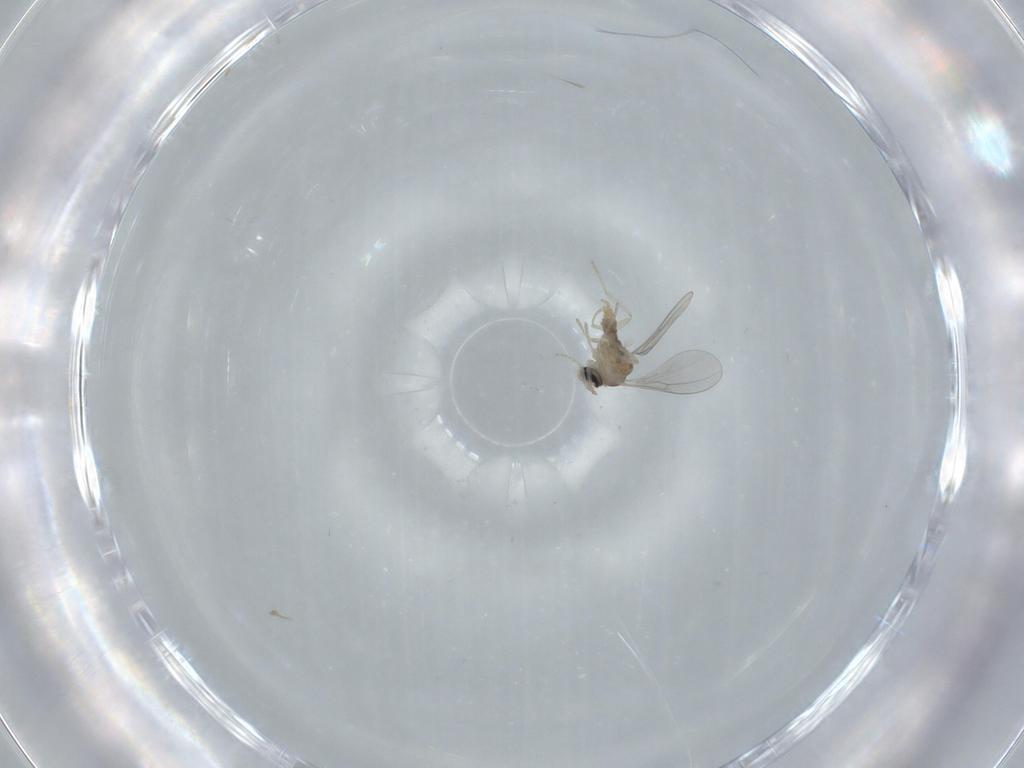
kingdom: Animalia
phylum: Arthropoda
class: Insecta
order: Diptera
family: Cecidomyiidae
